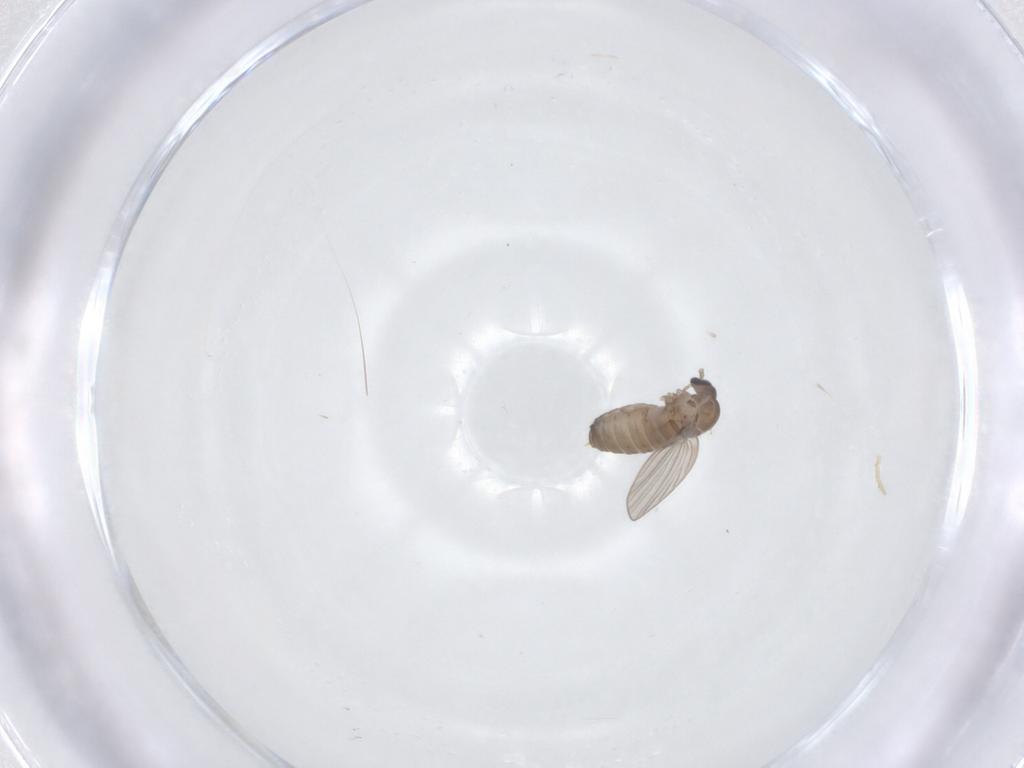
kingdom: Animalia
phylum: Arthropoda
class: Insecta
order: Diptera
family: Psychodidae
